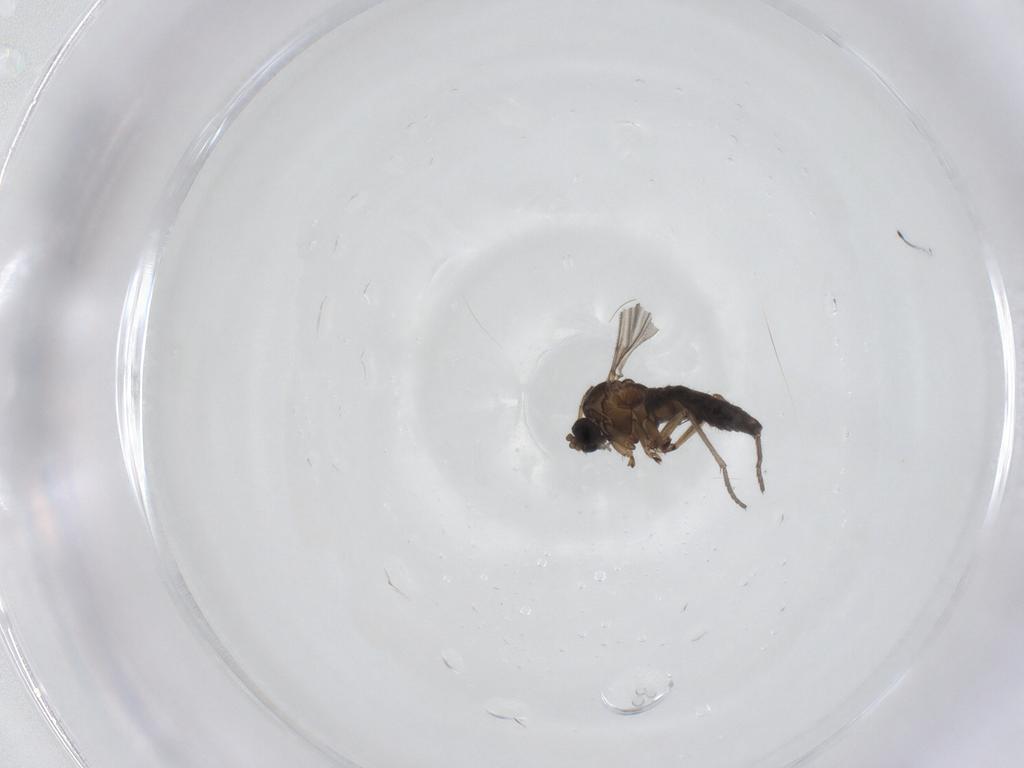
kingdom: Animalia
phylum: Arthropoda
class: Insecta
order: Diptera
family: Sciaridae
